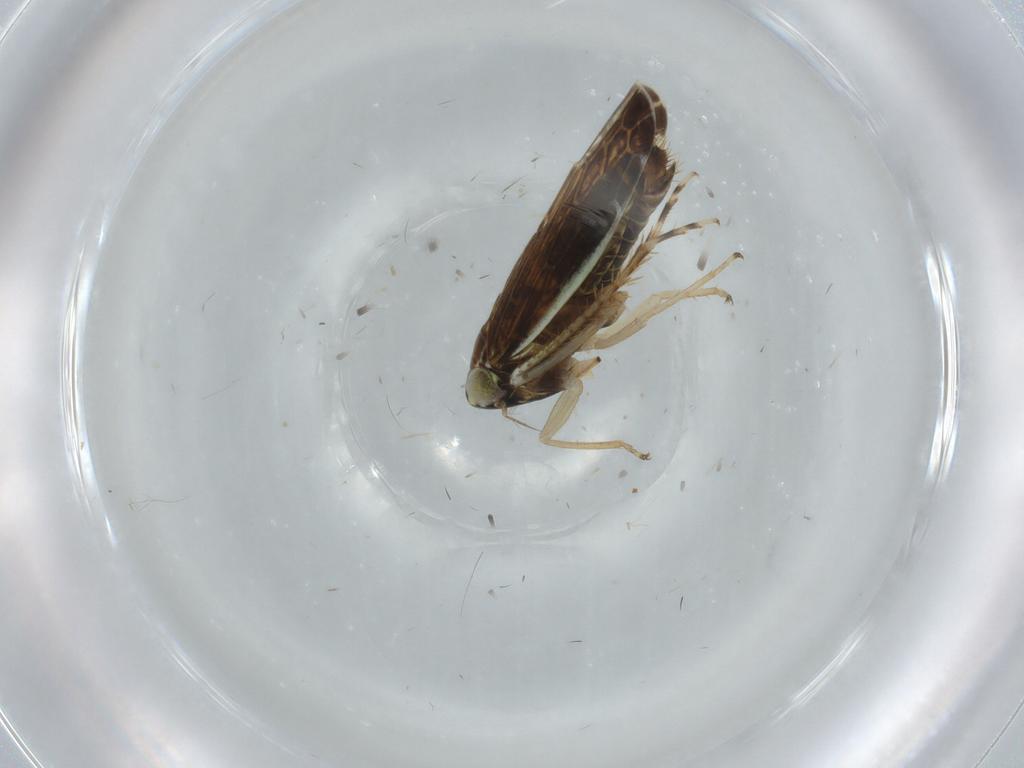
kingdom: Animalia
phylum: Arthropoda
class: Insecta
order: Hemiptera
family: Cicadellidae
